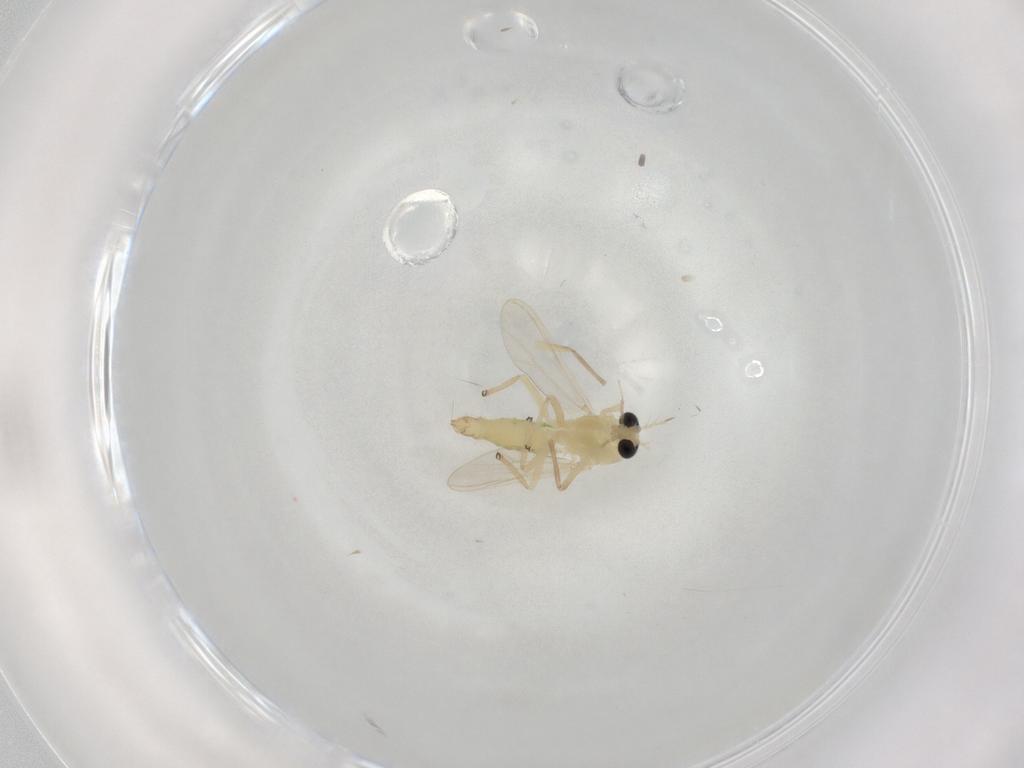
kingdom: Animalia
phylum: Arthropoda
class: Insecta
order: Diptera
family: Chironomidae
